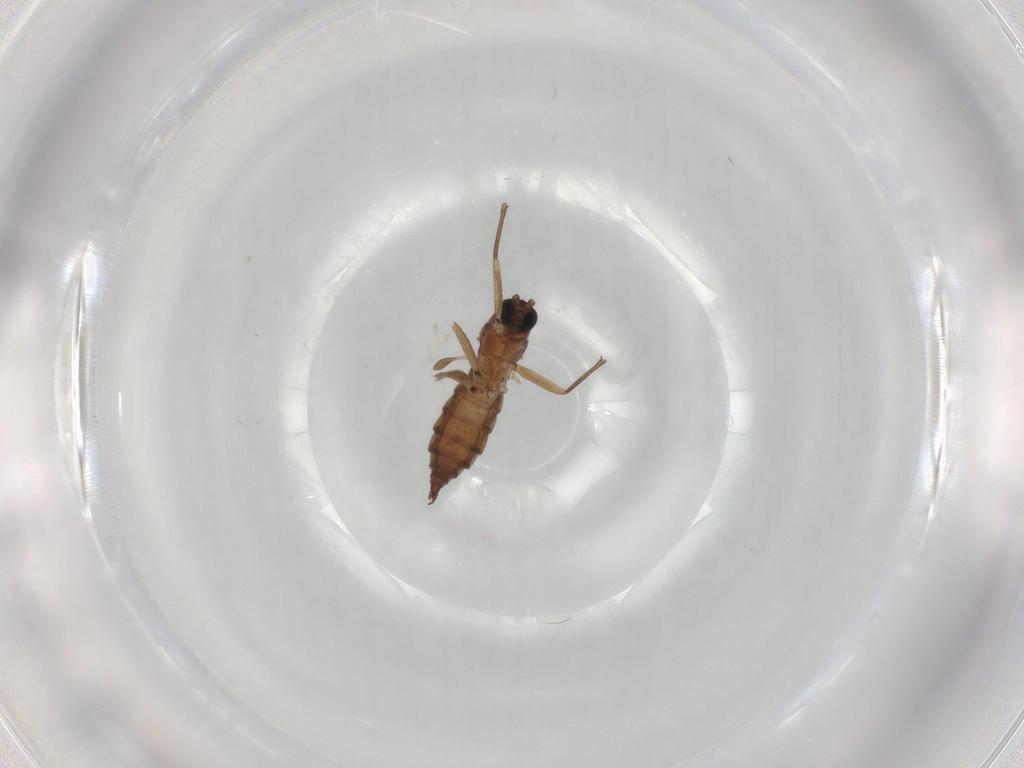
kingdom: Animalia
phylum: Arthropoda
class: Insecta
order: Diptera
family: Sciaridae
